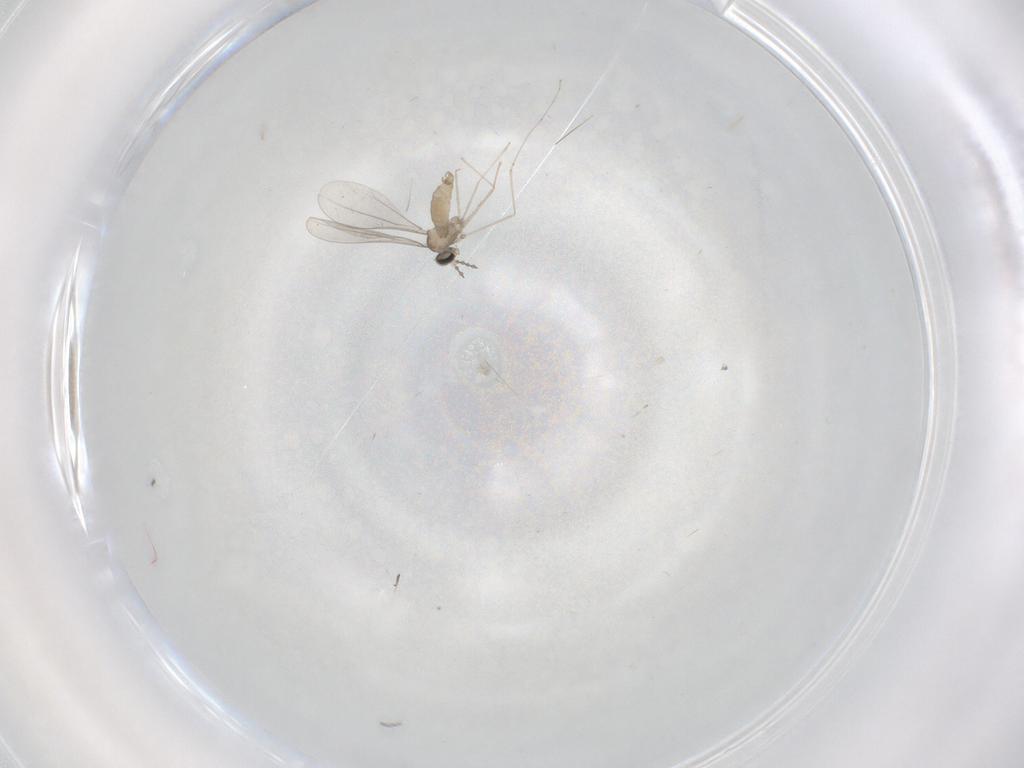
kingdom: Animalia
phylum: Arthropoda
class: Insecta
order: Diptera
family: Cecidomyiidae
